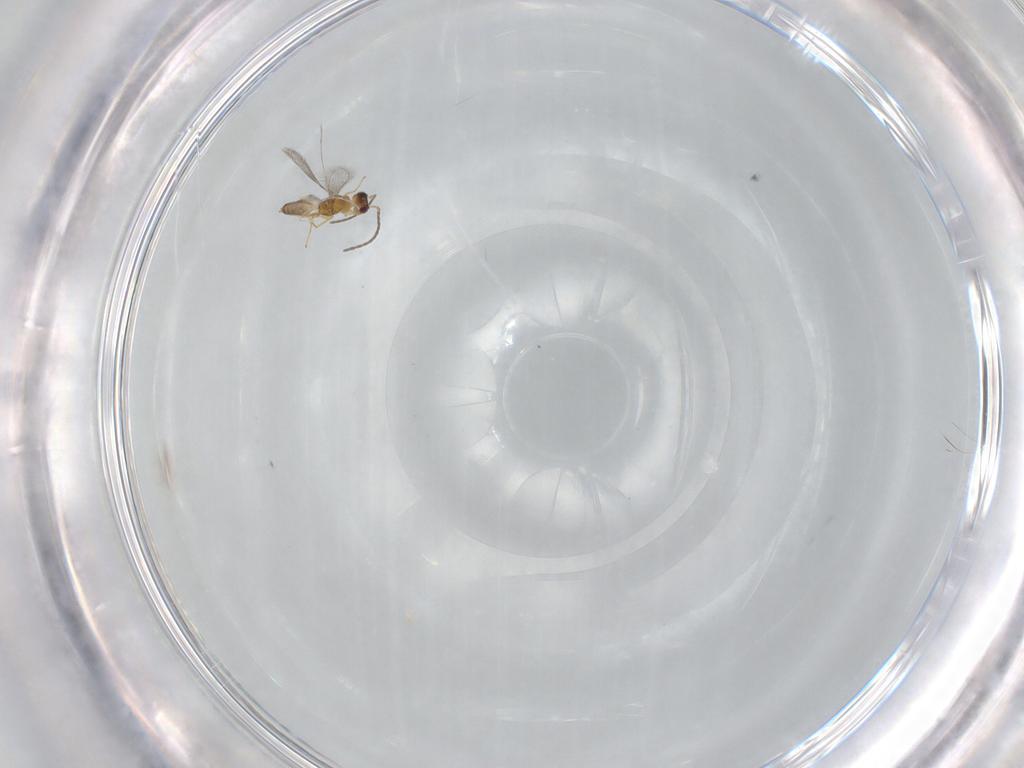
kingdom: Animalia
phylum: Arthropoda
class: Insecta
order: Hymenoptera
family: Mymaridae
